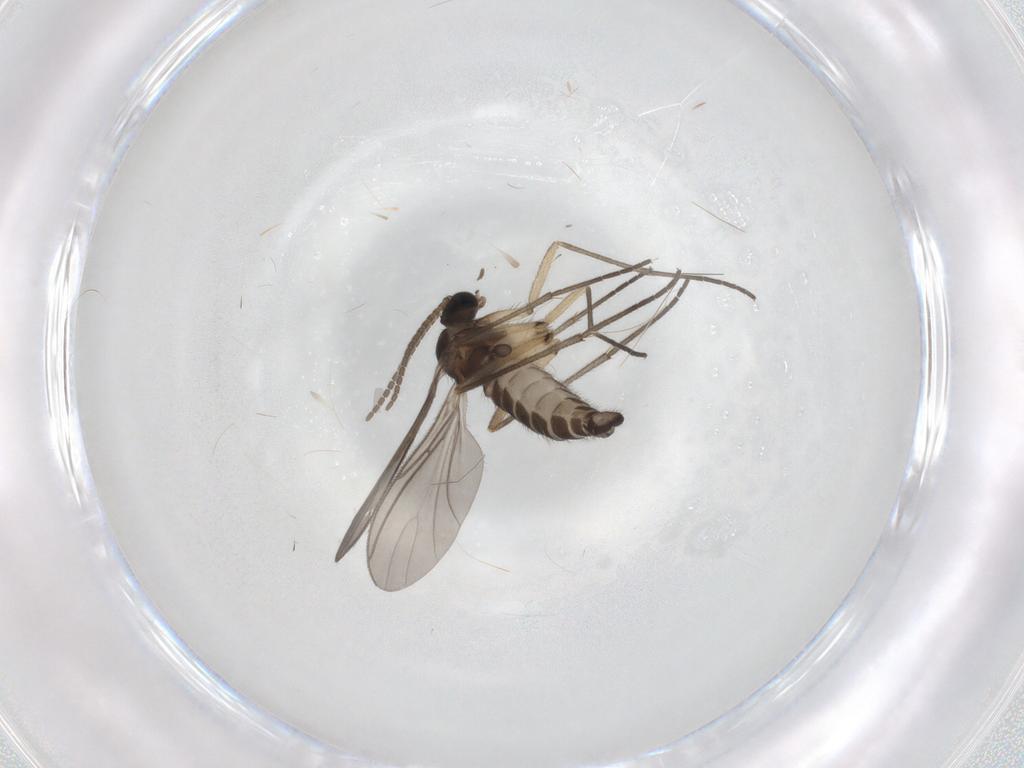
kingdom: Animalia
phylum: Arthropoda
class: Insecta
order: Diptera
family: Sciaridae
